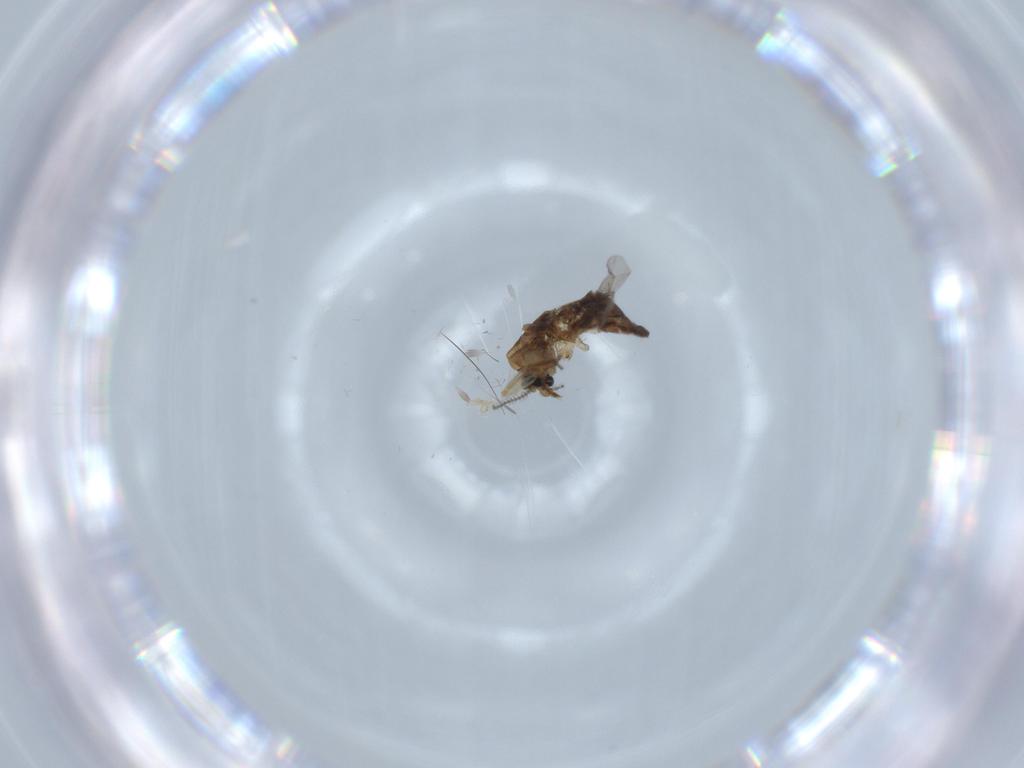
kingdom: Animalia
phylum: Arthropoda
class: Insecta
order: Diptera
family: Ceratopogonidae
